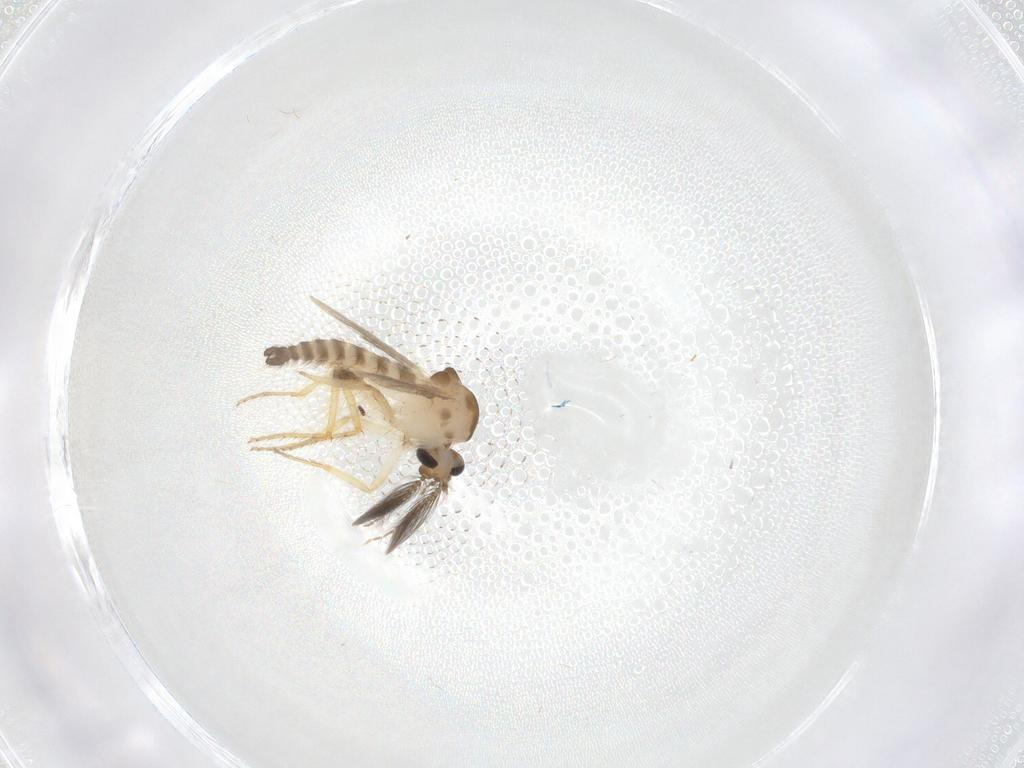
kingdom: Animalia
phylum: Arthropoda
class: Insecta
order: Diptera
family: Ceratopogonidae
